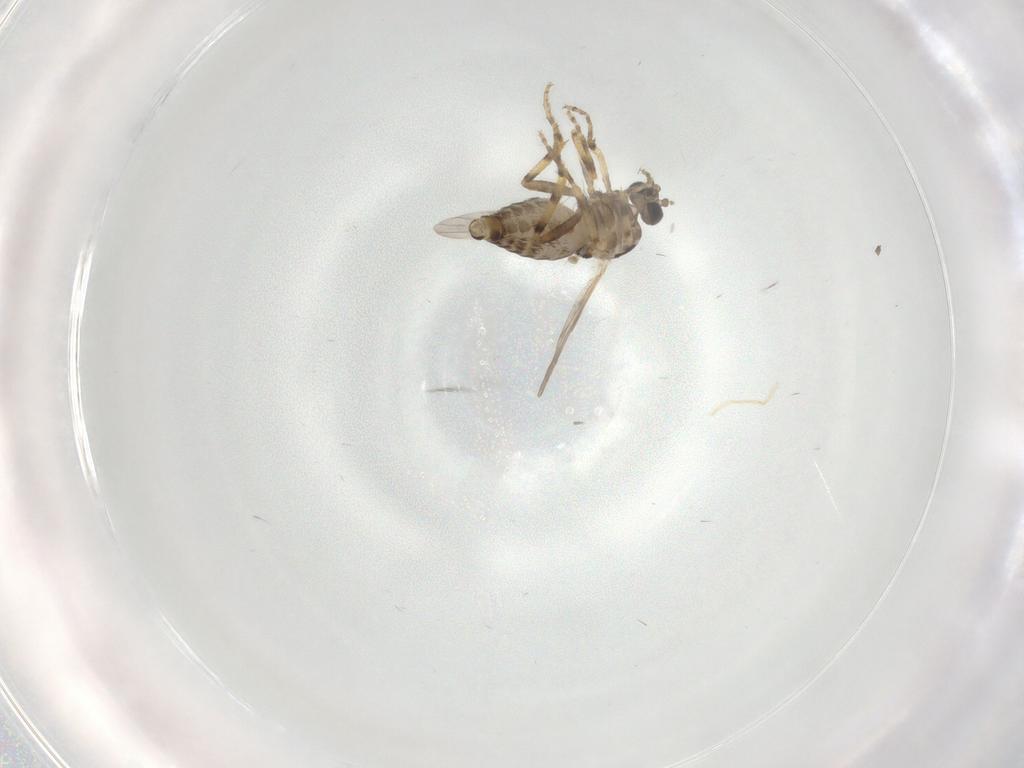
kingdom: Animalia
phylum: Arthropoda
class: Insecta
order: Diptera
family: Ceratopogonidae
